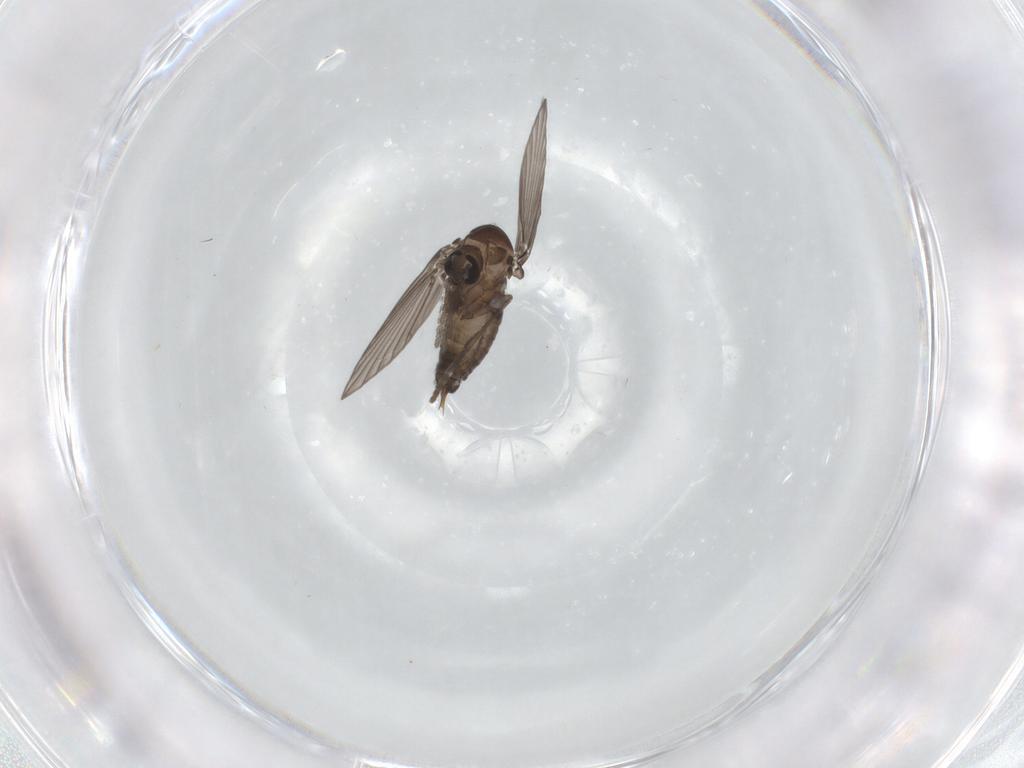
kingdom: Animalia
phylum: Arthropoda
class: Insecta
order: Diptera
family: Psychodidae
